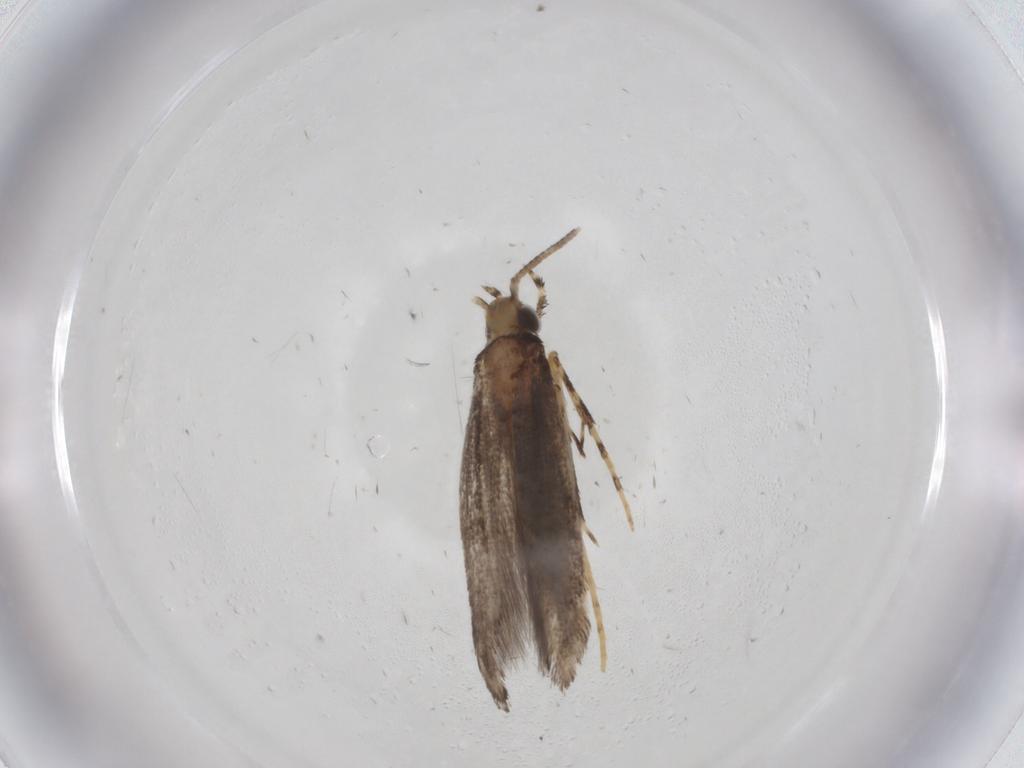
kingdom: Animalia
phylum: Arthropoda
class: Insecta
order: Lepidoptera
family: Gracillariidae
